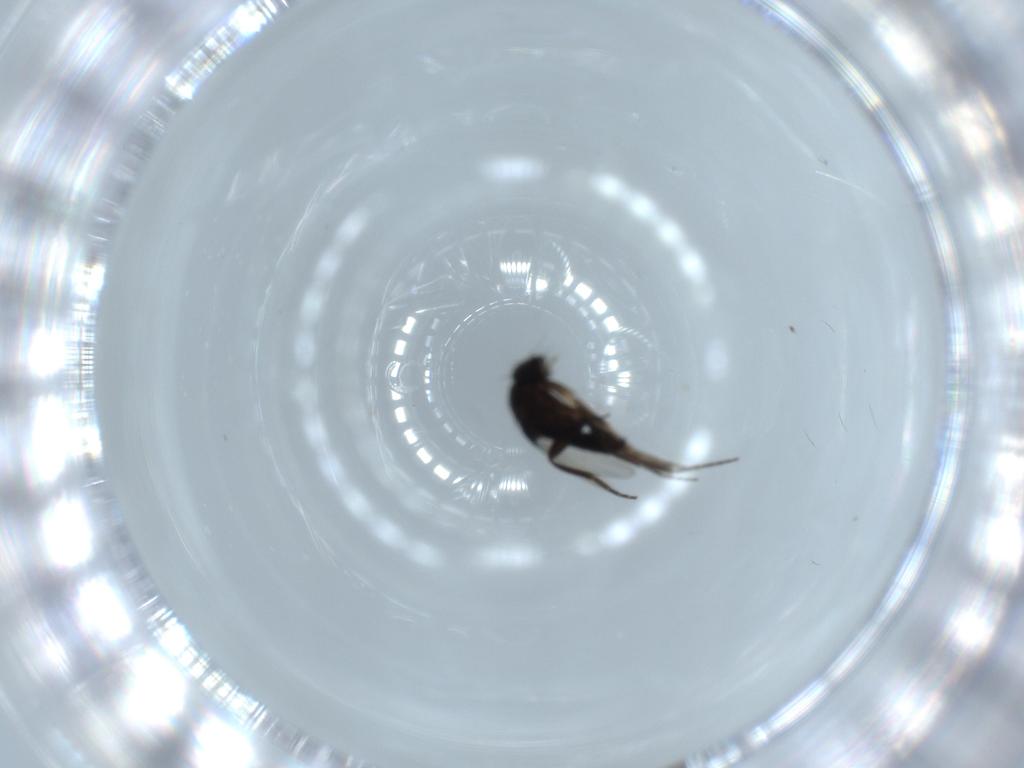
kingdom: Animalia
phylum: Arthropoda
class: Insecta
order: Diptera
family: Phoridae
